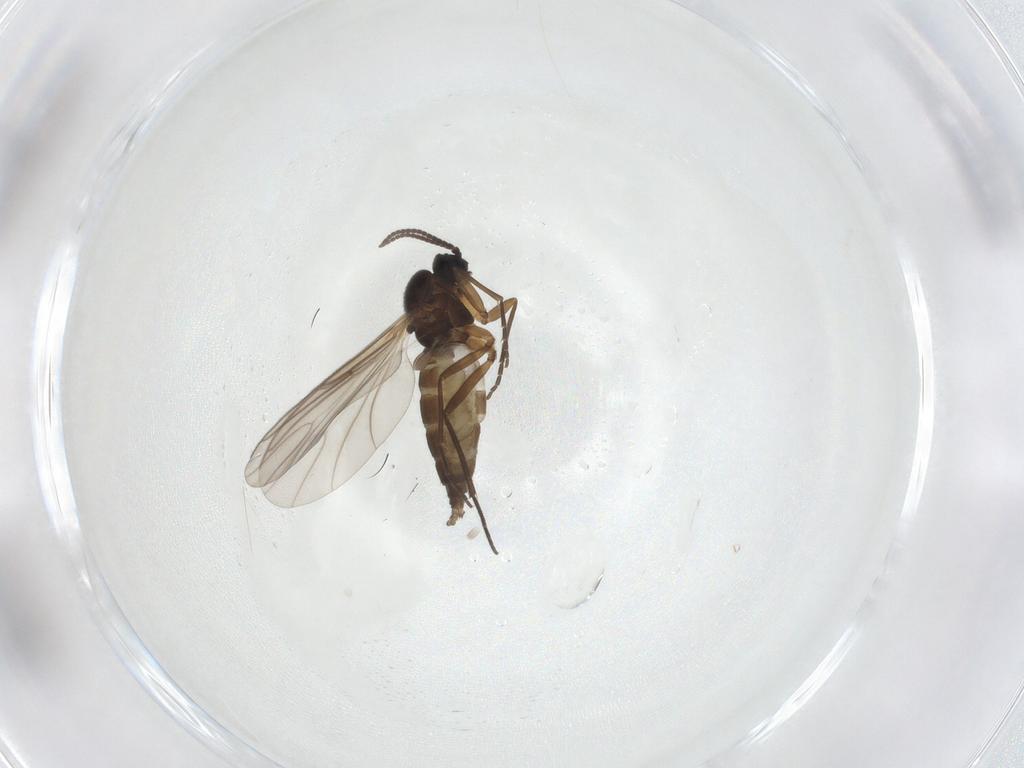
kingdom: Animalia
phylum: Arthropoda
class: Insecta
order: Diptera
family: Sciaridae
